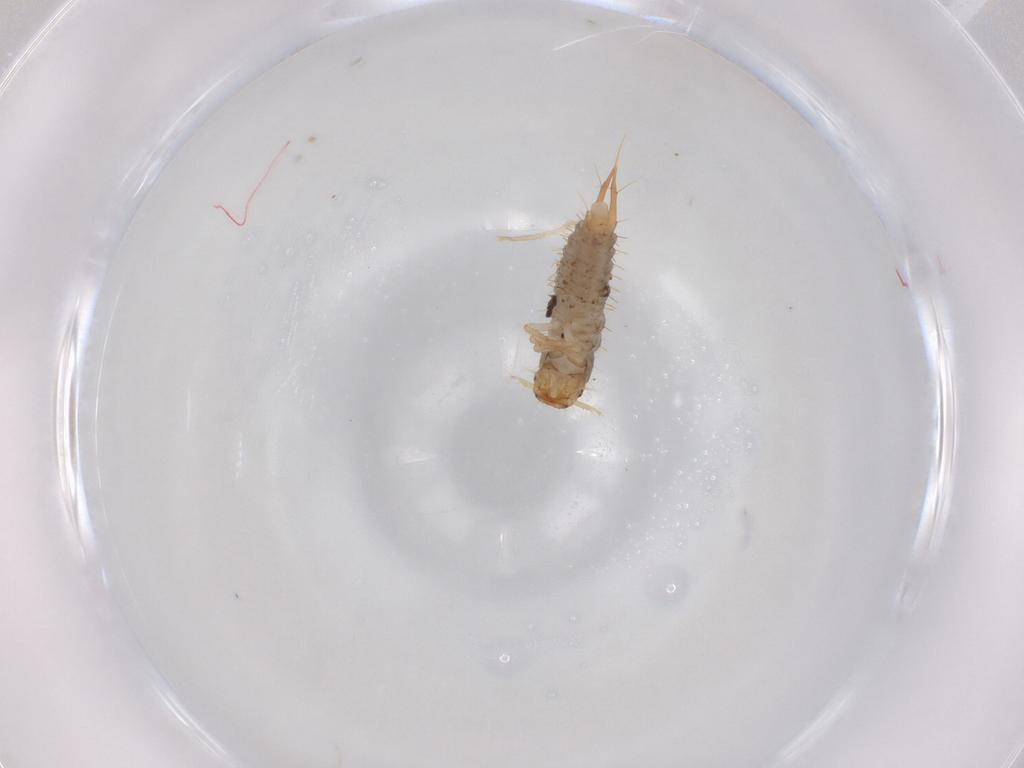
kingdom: Animalia
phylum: Arthropoda
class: Insecta
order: Coleoptera
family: Staphylinidae
